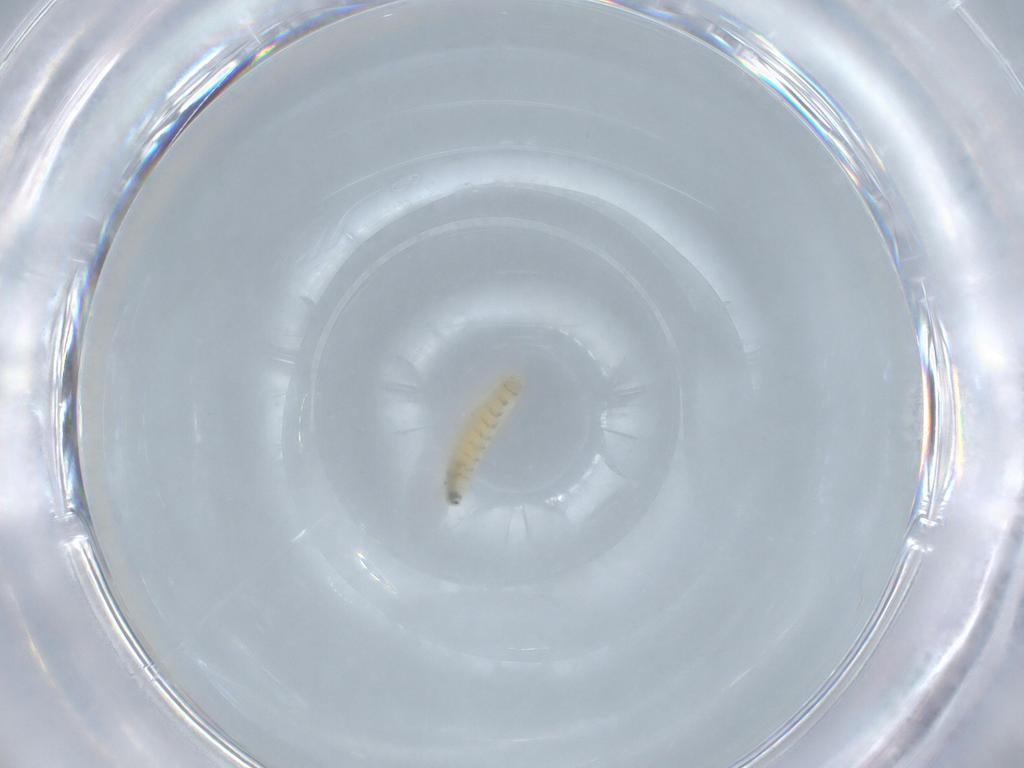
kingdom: Animalia
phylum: Arthropoda
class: Insecta
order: Diptera
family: Sarcophagidae
